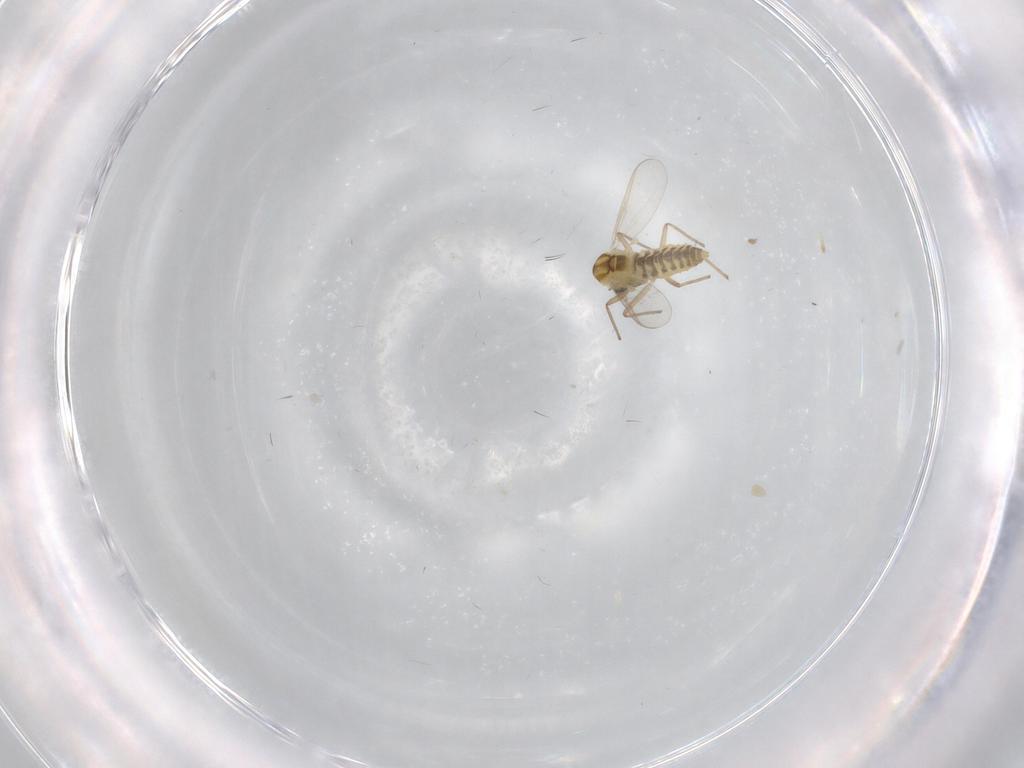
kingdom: Animalia
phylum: Arthropoda
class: Insecta
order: Diptera
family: Chironomidae
